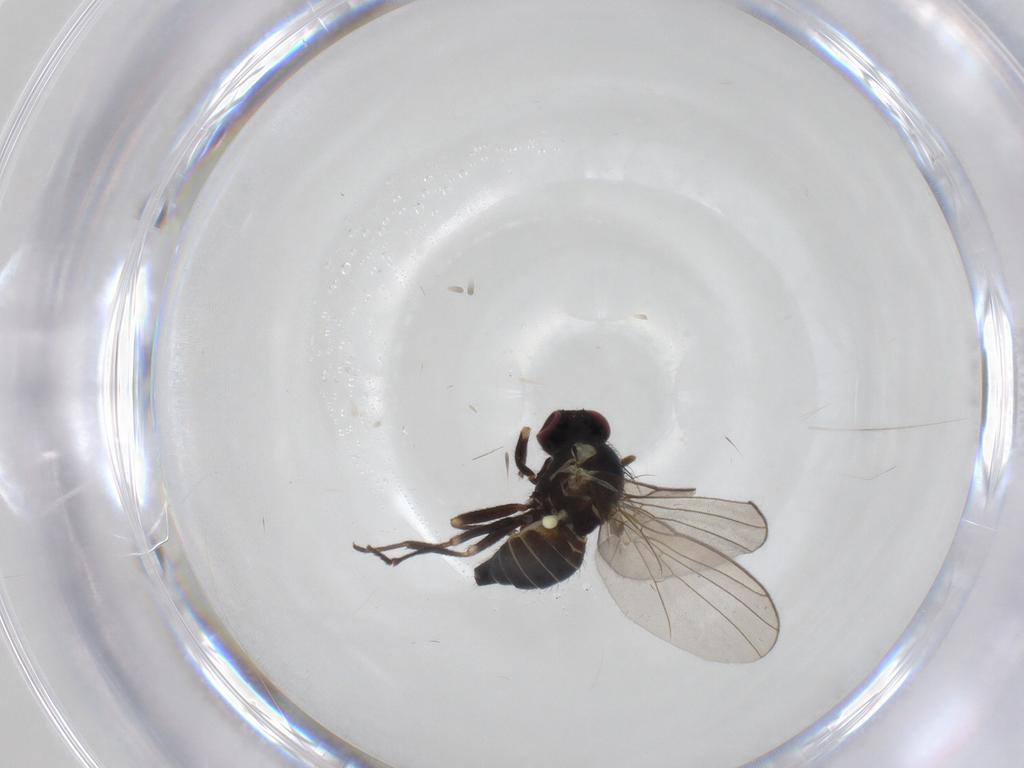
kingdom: Animalia
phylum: Arthropoda
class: Insecta
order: Diptera
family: Agromyzidae
